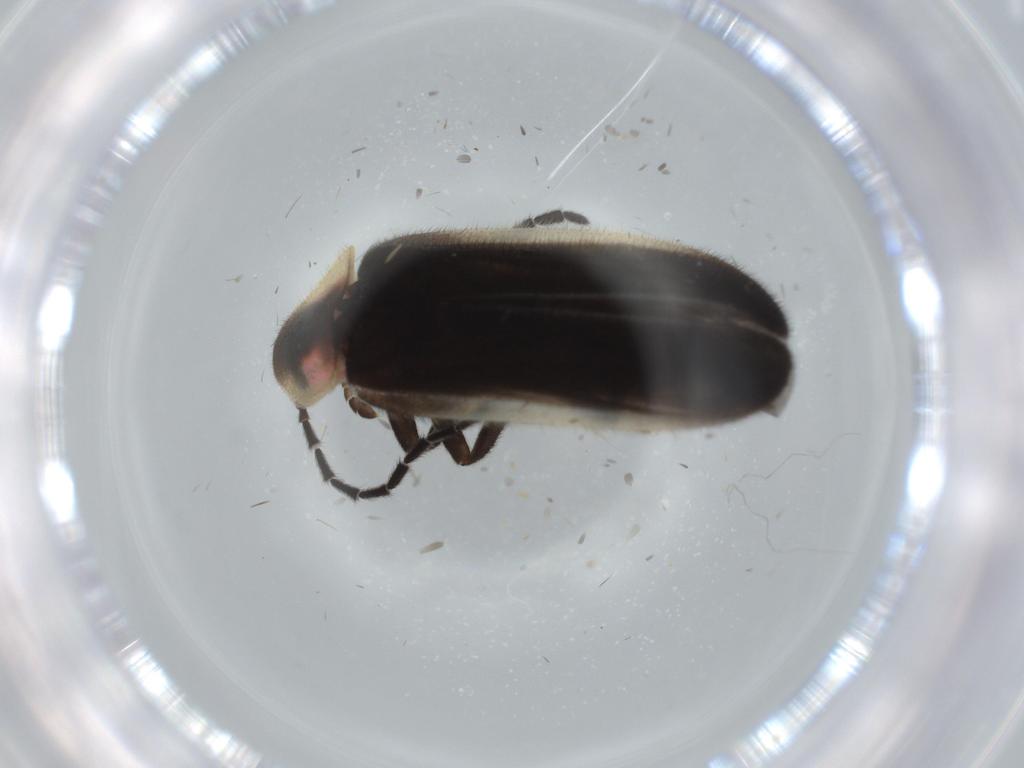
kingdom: Animalia
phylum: Arthropoda
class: Insecta
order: Coleoptera
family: Lampyridae
